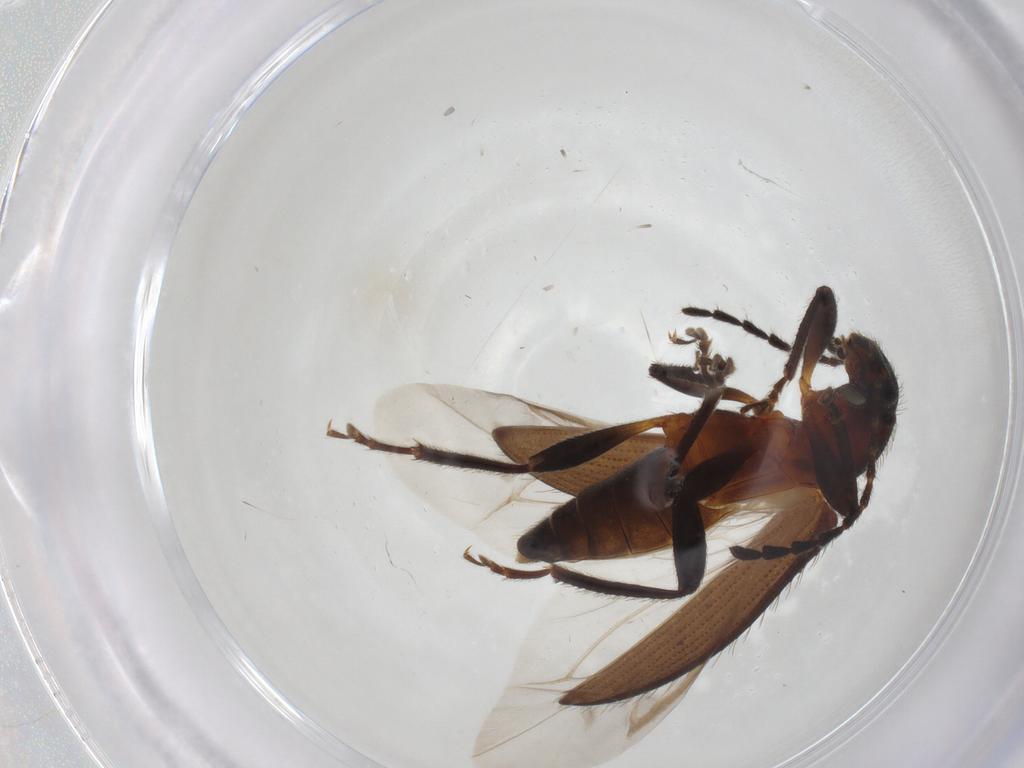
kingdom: Animalia
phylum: Arthropoda
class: Insecta
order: Coleoptera
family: Tenebrionidae
